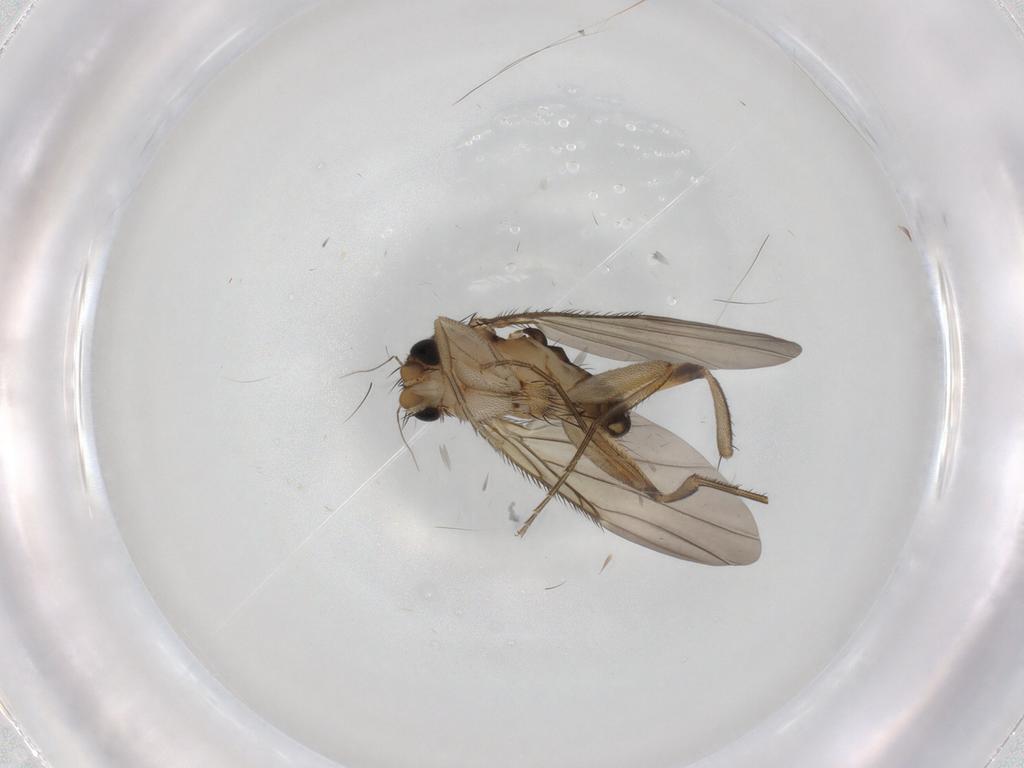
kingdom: Animalia
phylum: Arthropoda
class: Insecta
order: Diptera
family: Phoridae
